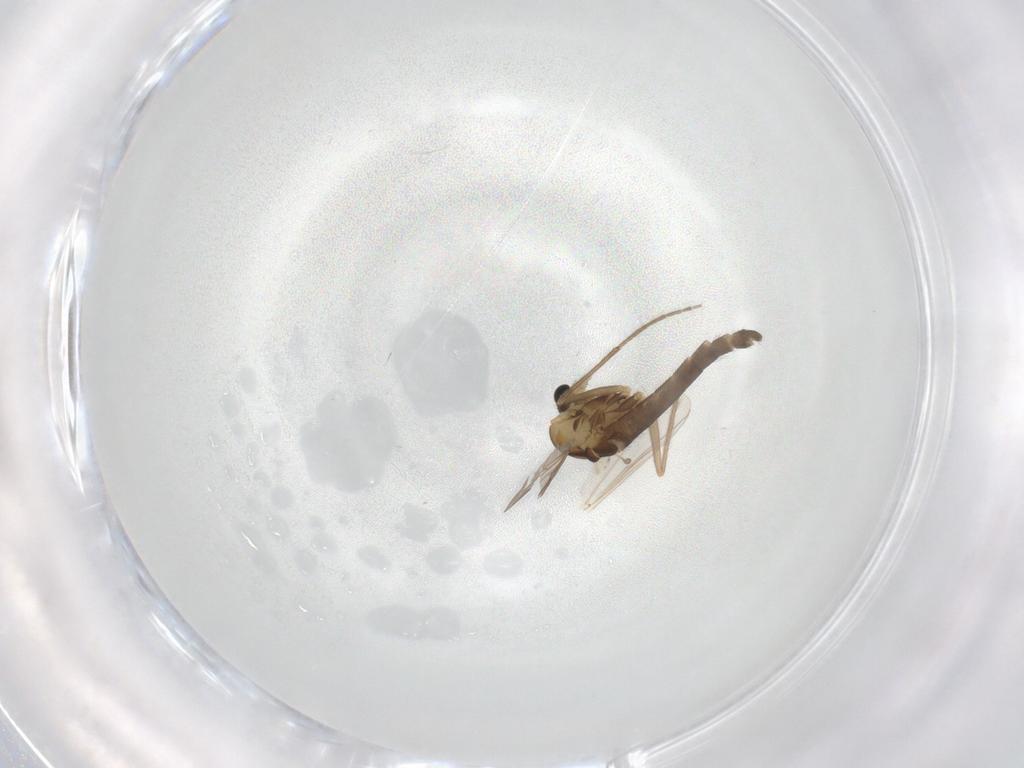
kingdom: Animalia
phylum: Arthropoda
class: Insecta
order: Diptera
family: Chironomidae
